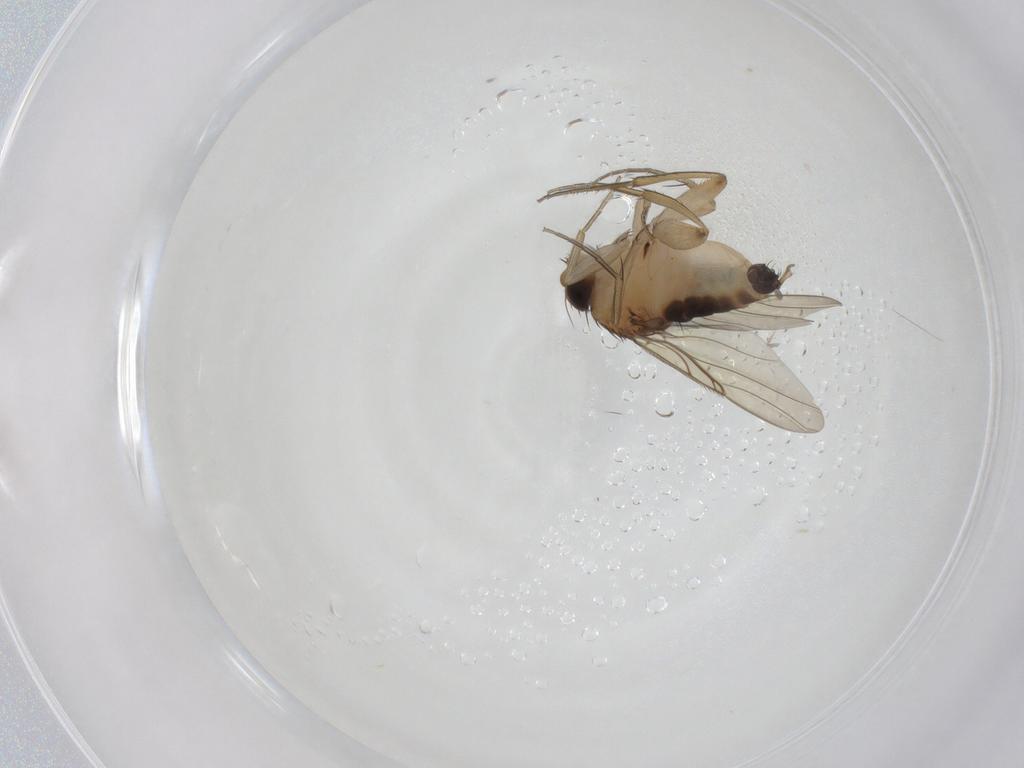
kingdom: Animalia
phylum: Arthropoda
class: Insecta
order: Diptera
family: Phoridae
